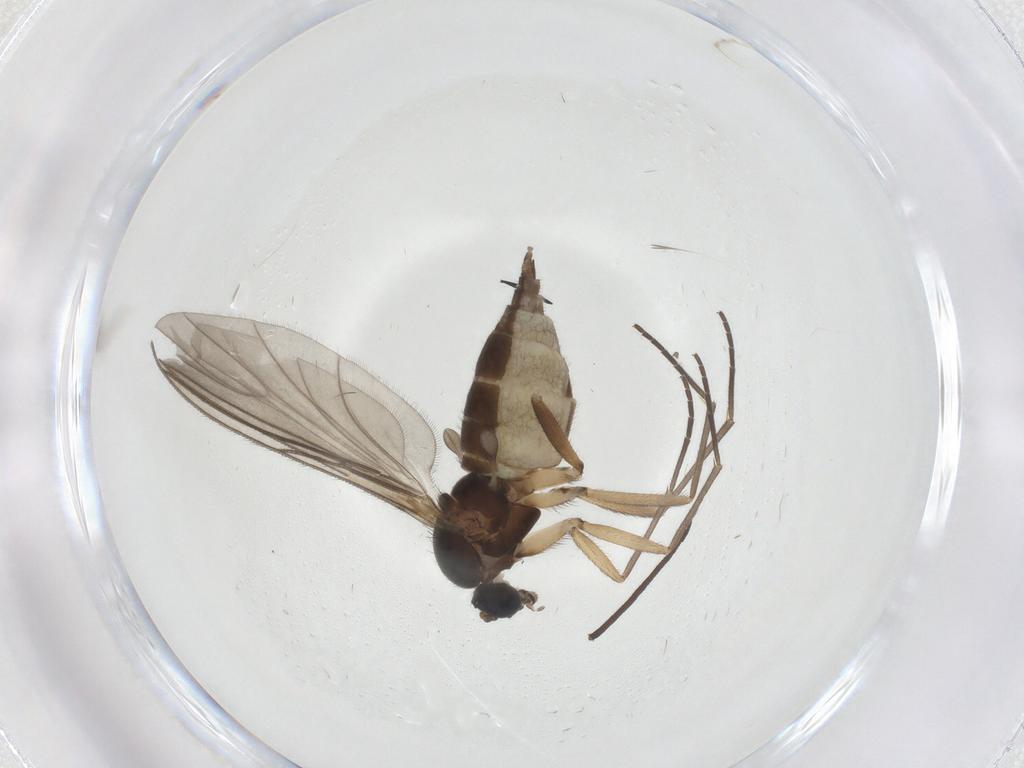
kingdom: Animalia
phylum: Arthropoda
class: Insecta
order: Diptera
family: Sciaridae
